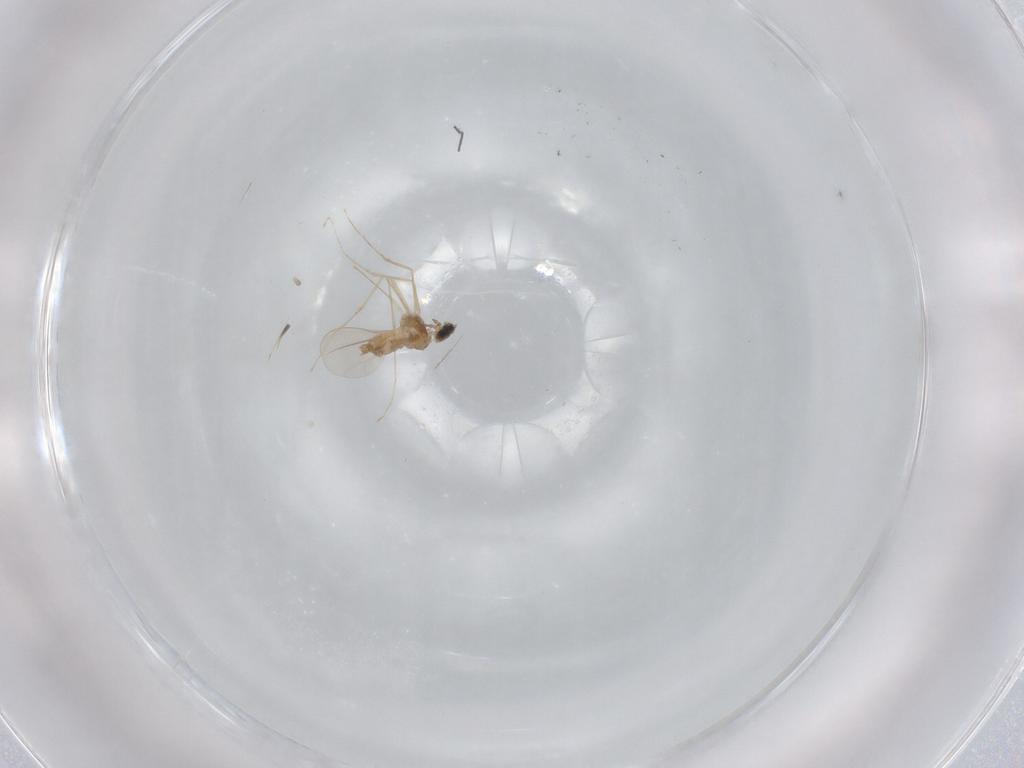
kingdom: Animalia
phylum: Arthropoda
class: Insecta
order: Diptera
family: Cecidomyiidae
